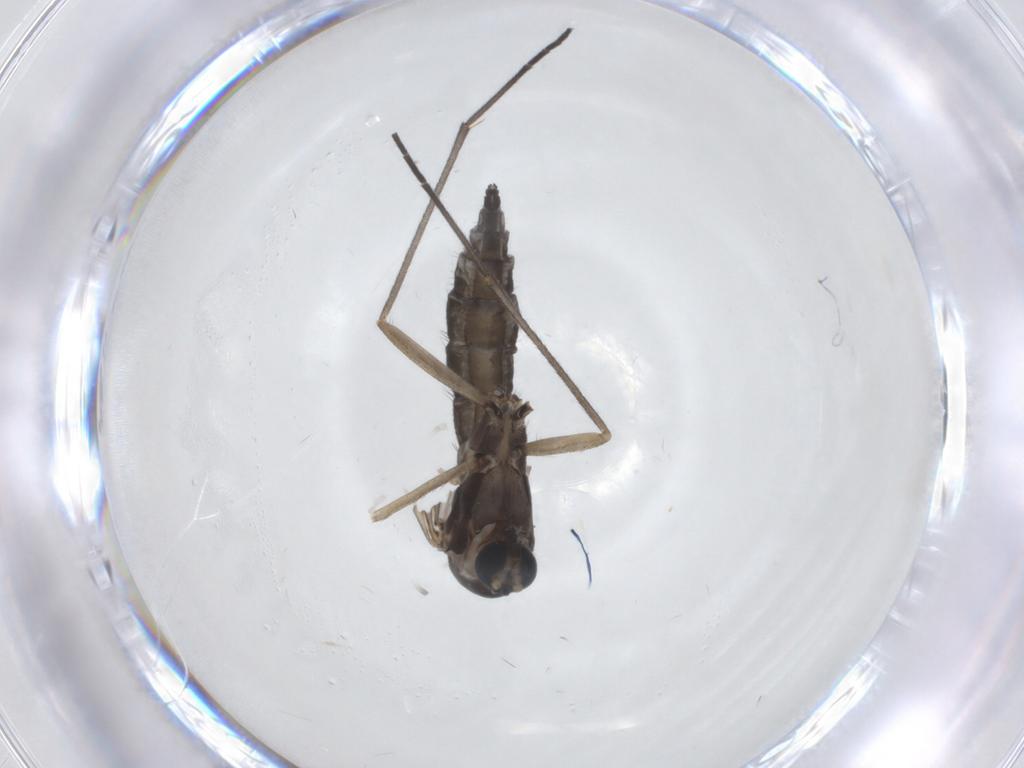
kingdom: Animalia
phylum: Arthropoda
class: Insecta
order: Diptera
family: Sciaridae
